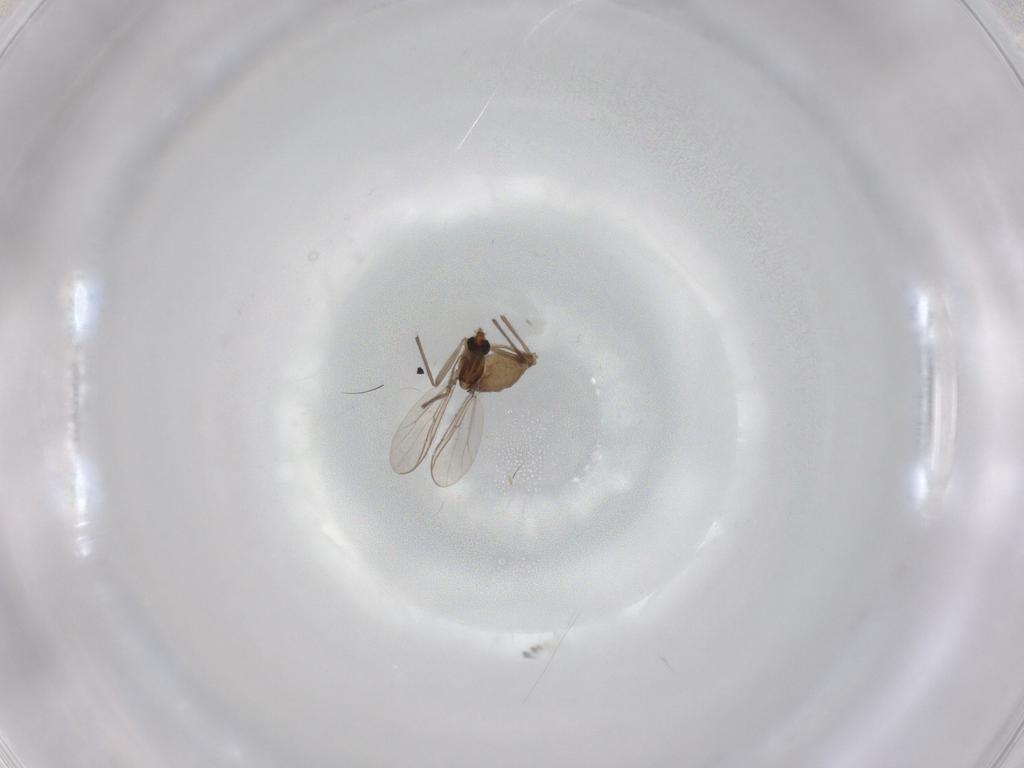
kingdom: Animalia
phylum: Arthropoda
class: Insecta
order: Diptera
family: Chironomidae
